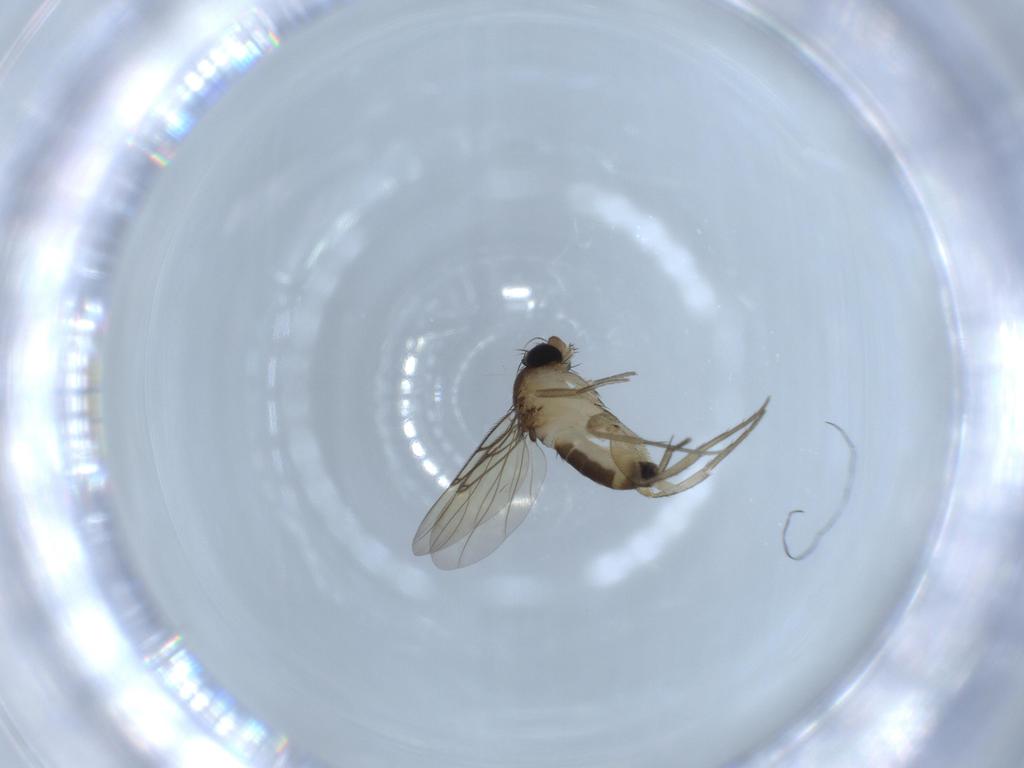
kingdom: Animalia
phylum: Arthropoda
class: Insecta
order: Diptera
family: Phoridae
